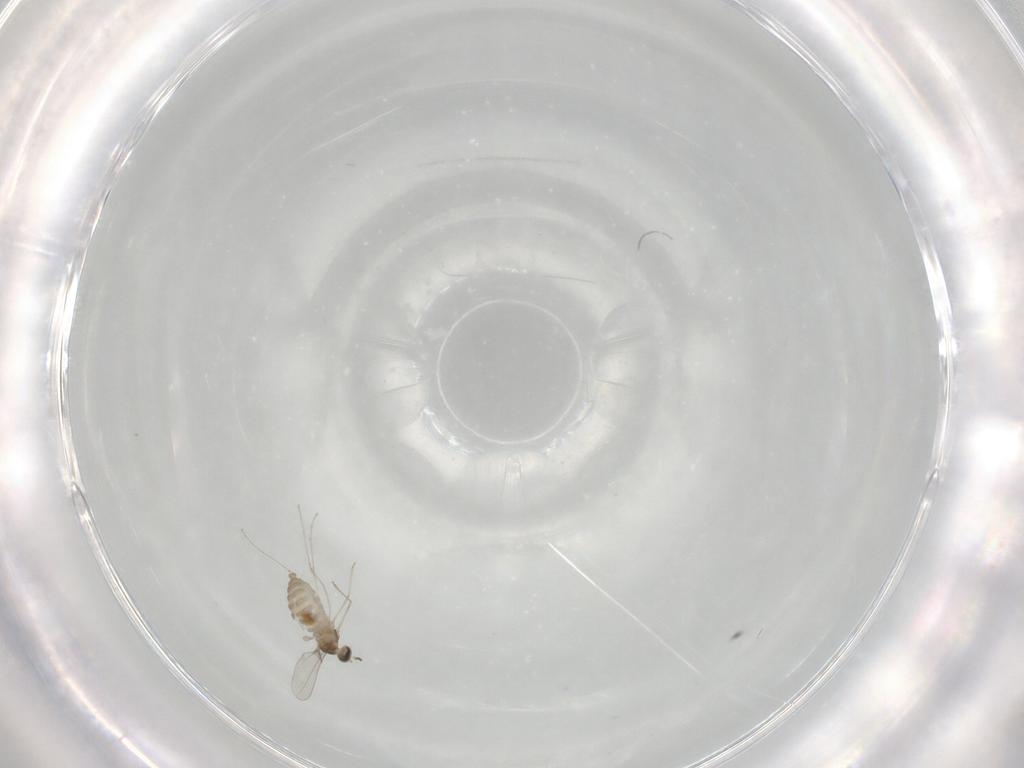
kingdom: Animalia
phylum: Arthropoda
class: Insecta
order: Diptera
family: Cecidomyiidae
